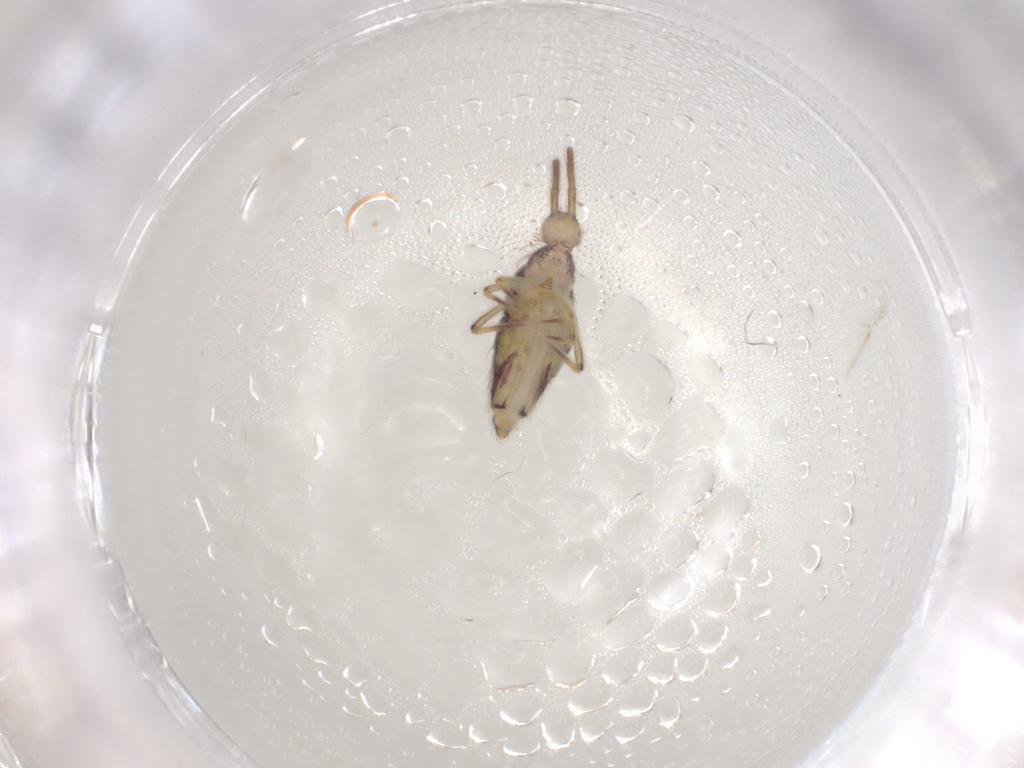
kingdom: Animalia
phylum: Arthropoda
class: Collembola
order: Entomobryomorpha
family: Entomobryidae
